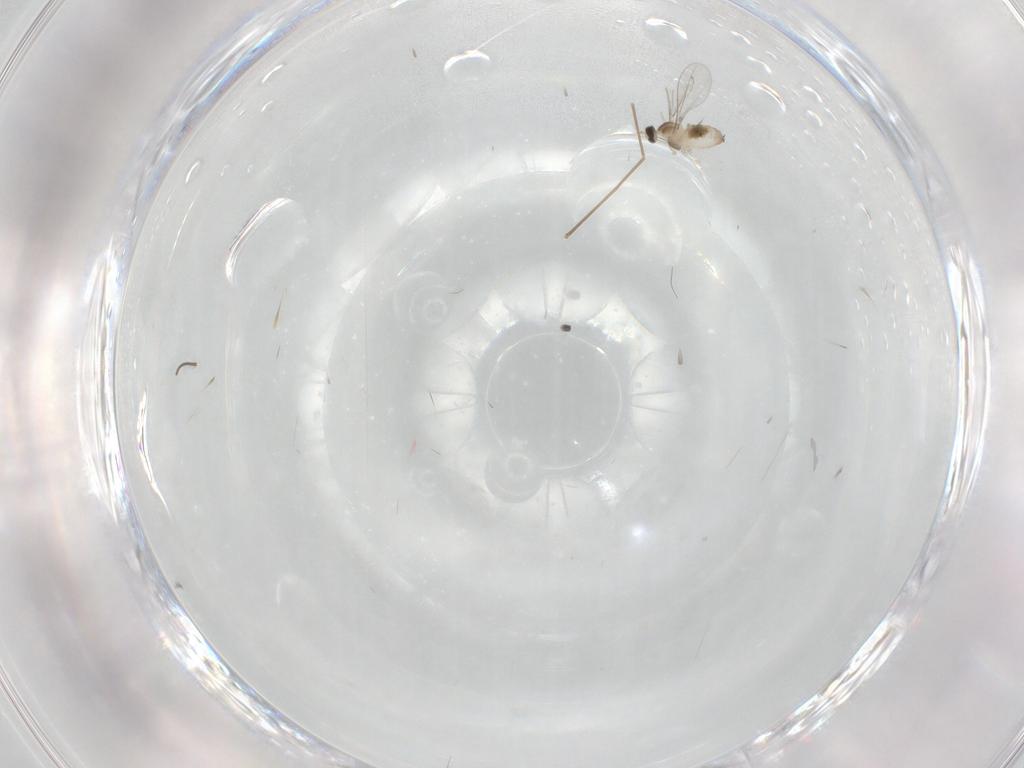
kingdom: Animalia
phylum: Arthropoda
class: Insecta
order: Diptera
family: Cecidomyiidae
